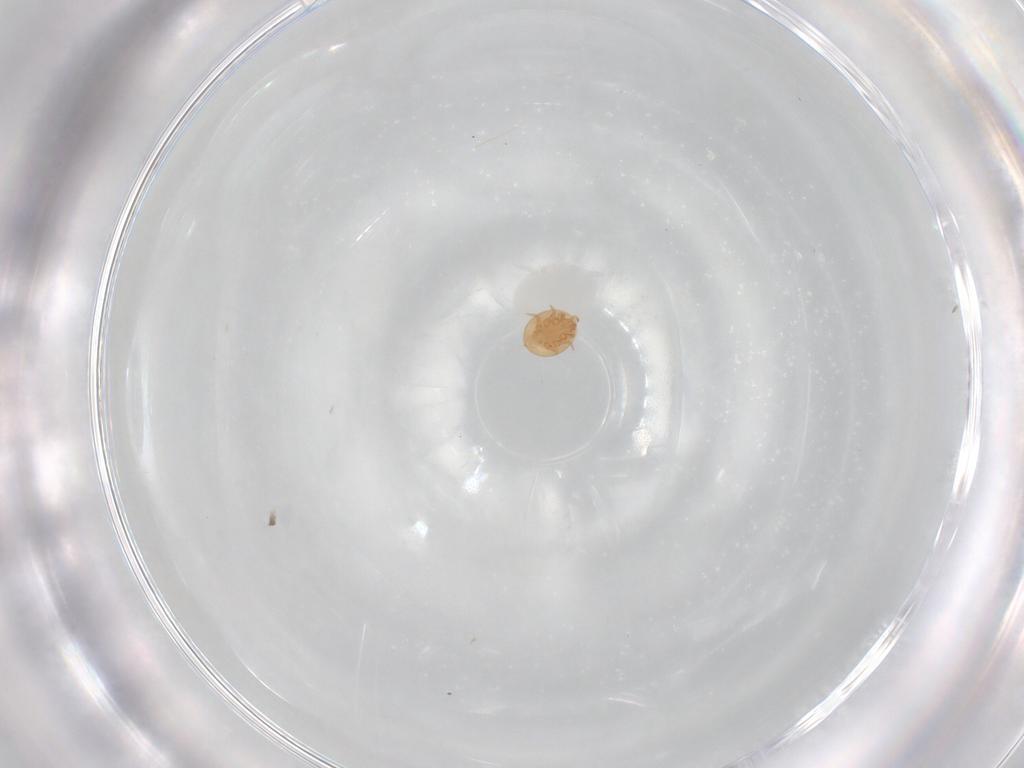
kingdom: Animalia
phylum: Arthropoda
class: Arachnida
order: Mesostigmata
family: Trematuridae
